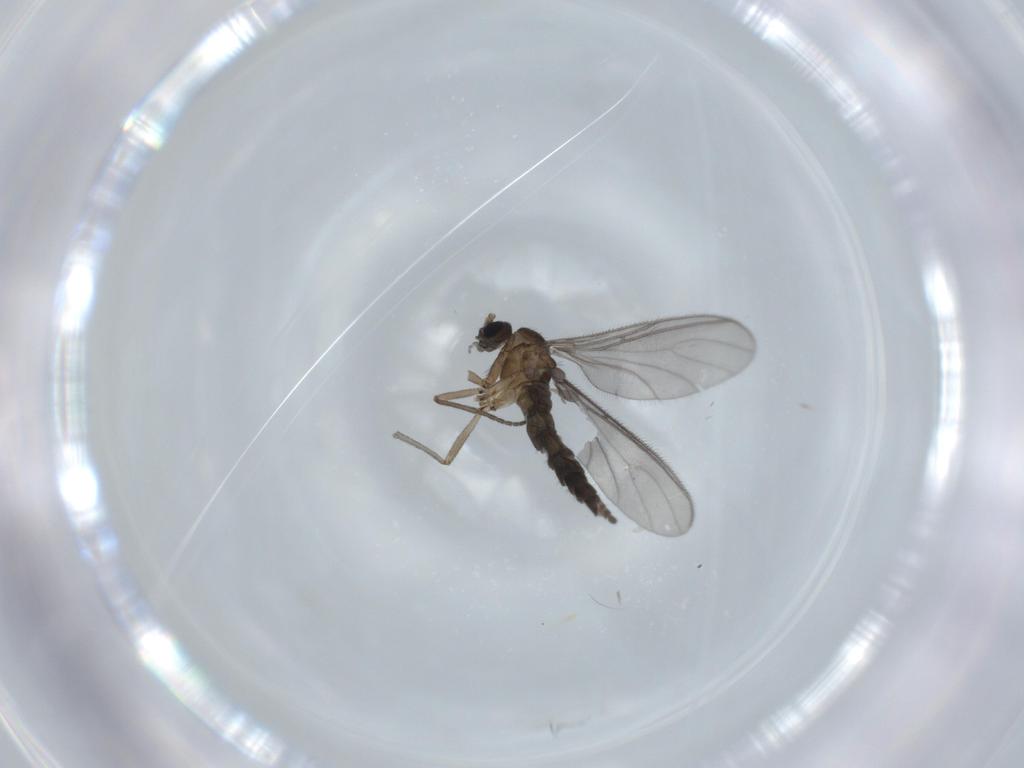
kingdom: Animalia
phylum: Arthropoda
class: Insecta
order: Diptera
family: Sciaridae
